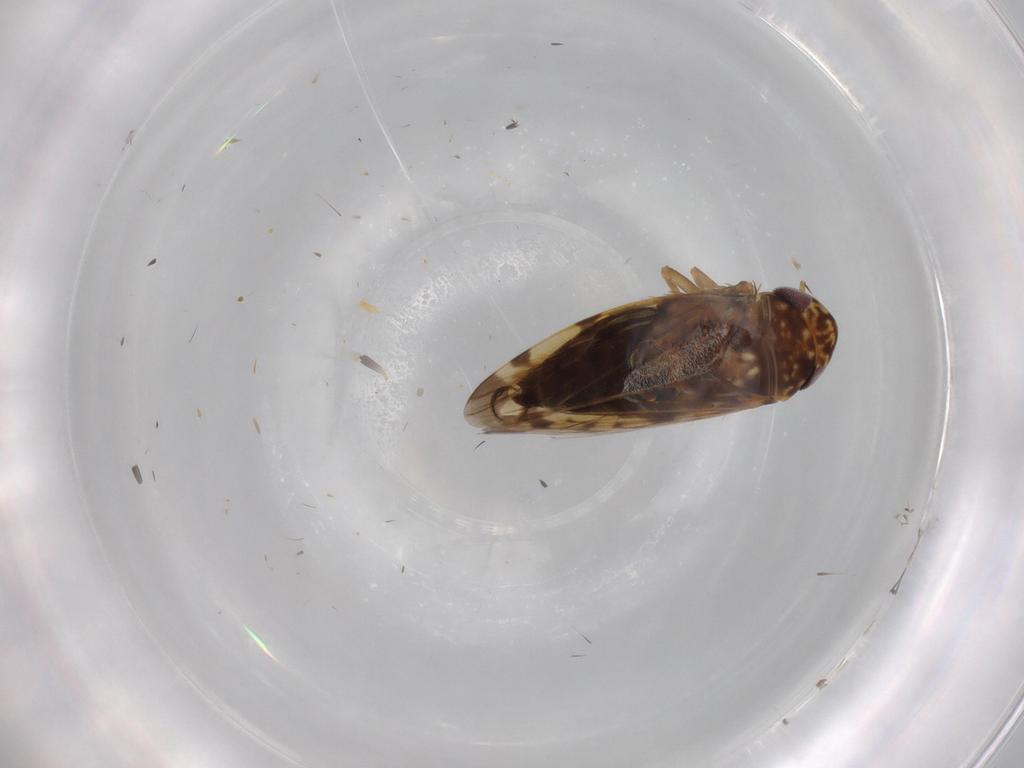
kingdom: Animalia
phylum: Arthropoda
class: Insecta
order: Hemiptera
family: Cicadellidae
